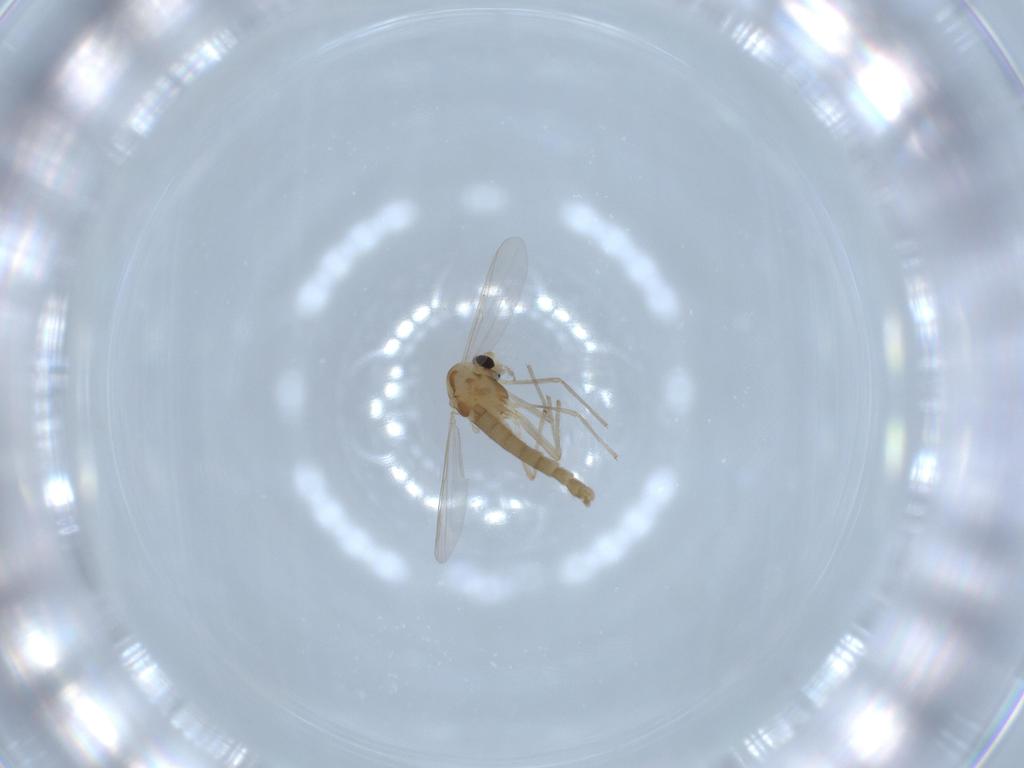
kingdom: Animalia
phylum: Arthropoda
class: Insecta
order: Diptera
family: Chironomidae
